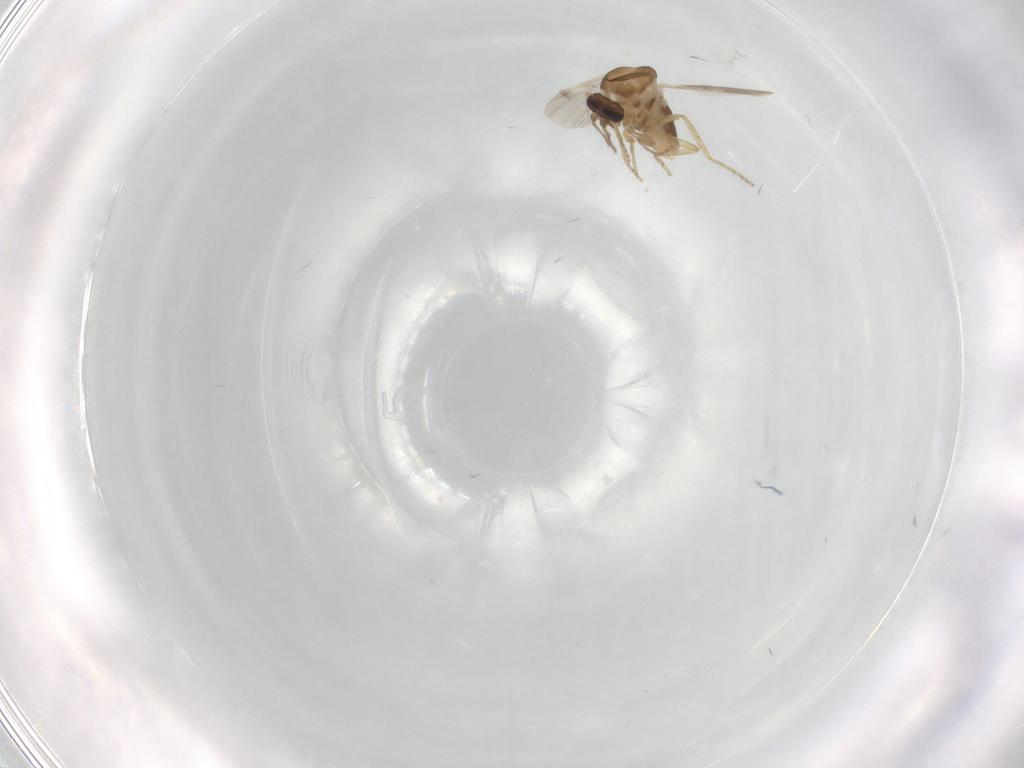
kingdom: Animalia
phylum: Arthropoda
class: Insecta
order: Diptera
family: Ceratopogonidae
